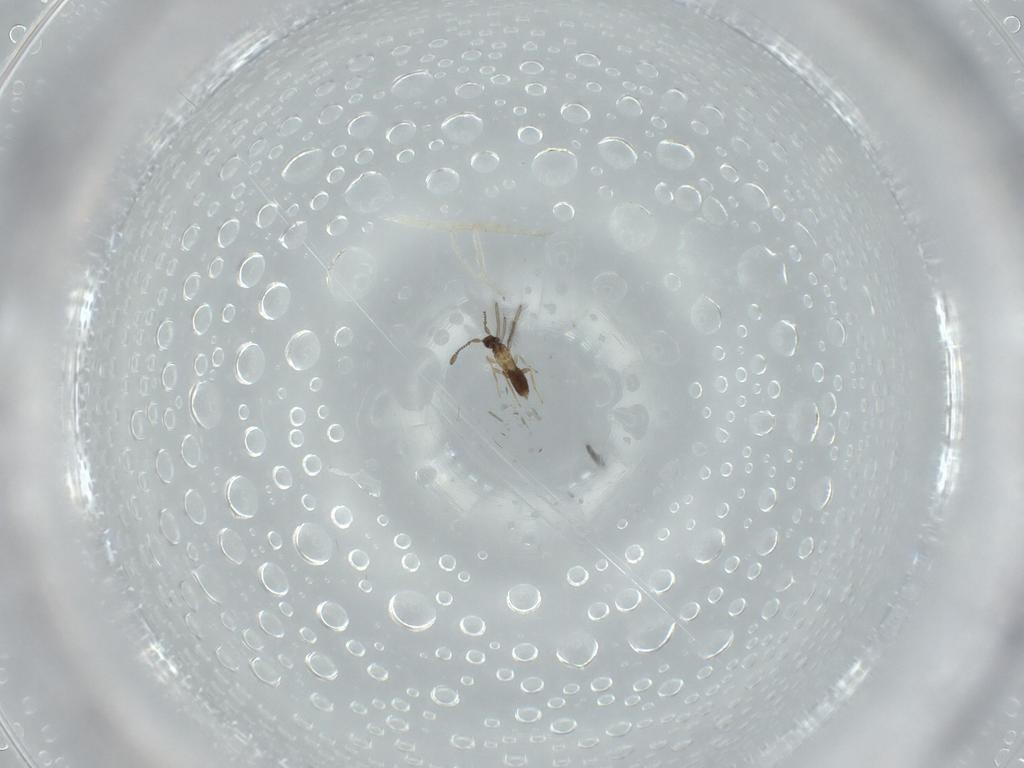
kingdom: Animalia
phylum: Arthropoda
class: Insecta
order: Hymenoptera
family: Mymaridae
